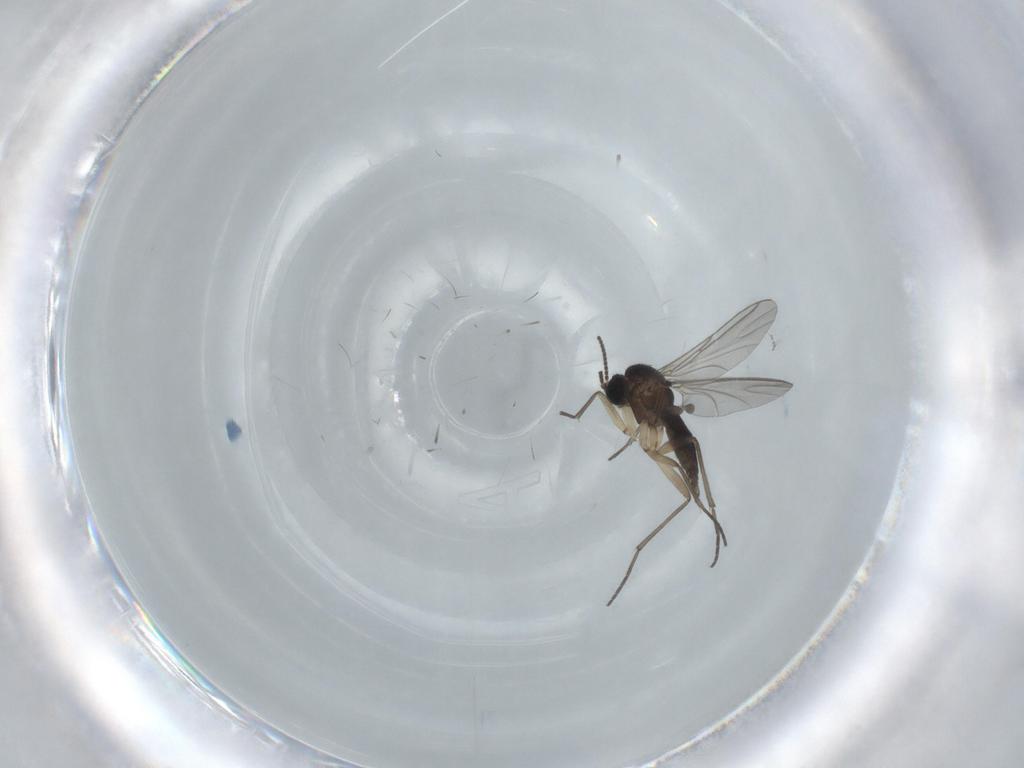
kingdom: Animalia
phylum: Arthropoda
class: Insecta
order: Diptera
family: Sciaridae
